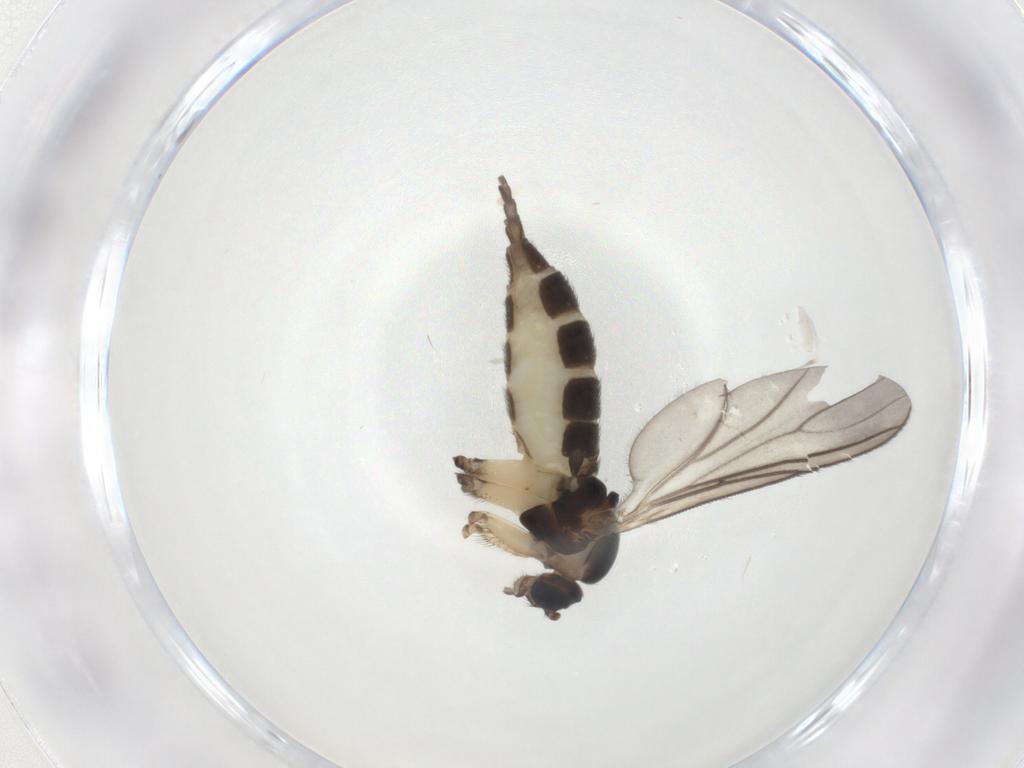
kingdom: Animalia
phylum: Arthropoda
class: Insecta
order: Diptera
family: Sciaridae
